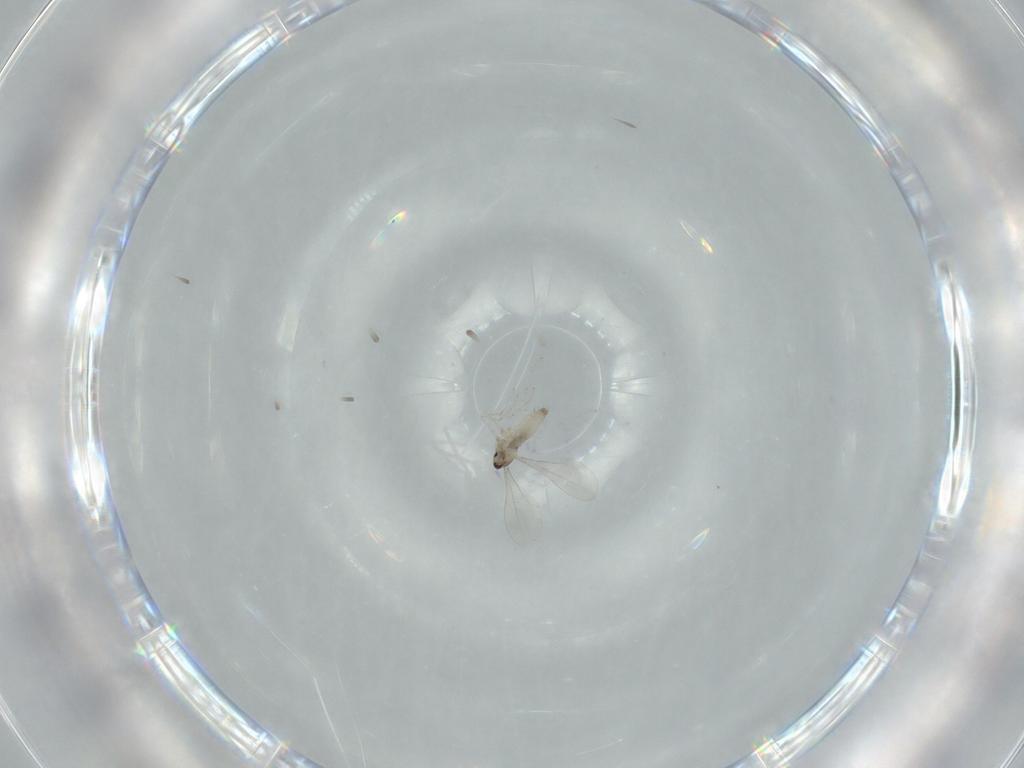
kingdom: Animalia
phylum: Arthropoda
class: Insecta
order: Diptera
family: Cecidomyiidae
